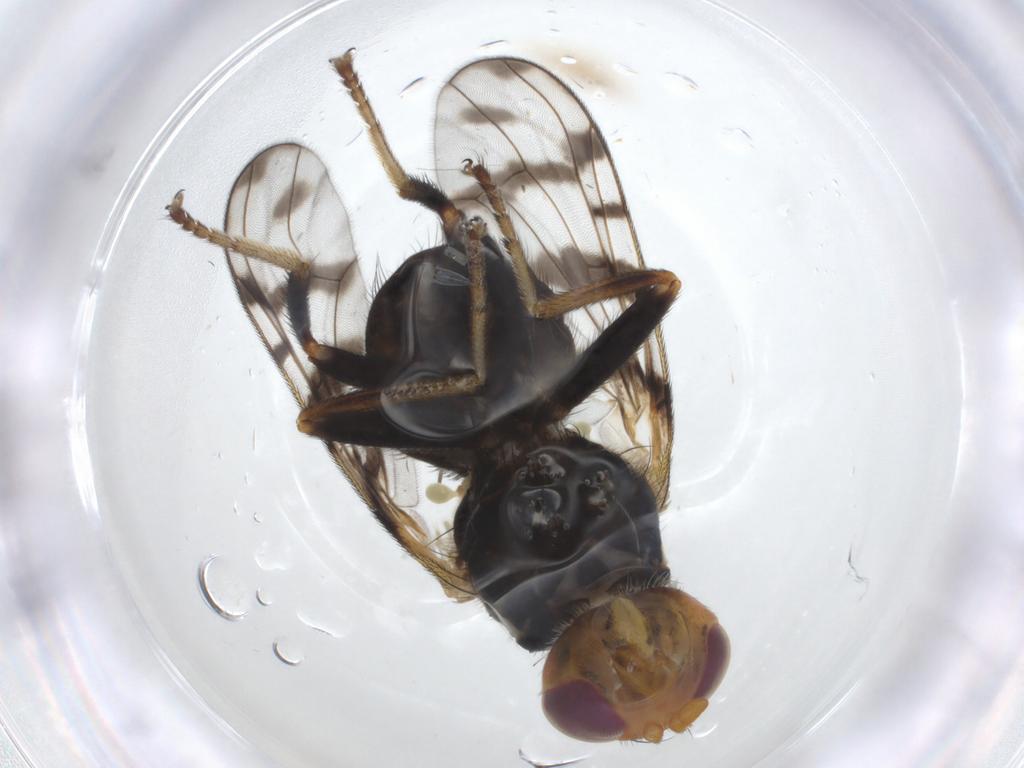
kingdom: Animalia
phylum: Arthropoda
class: Insecta
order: Diptera
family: Tephritidae
